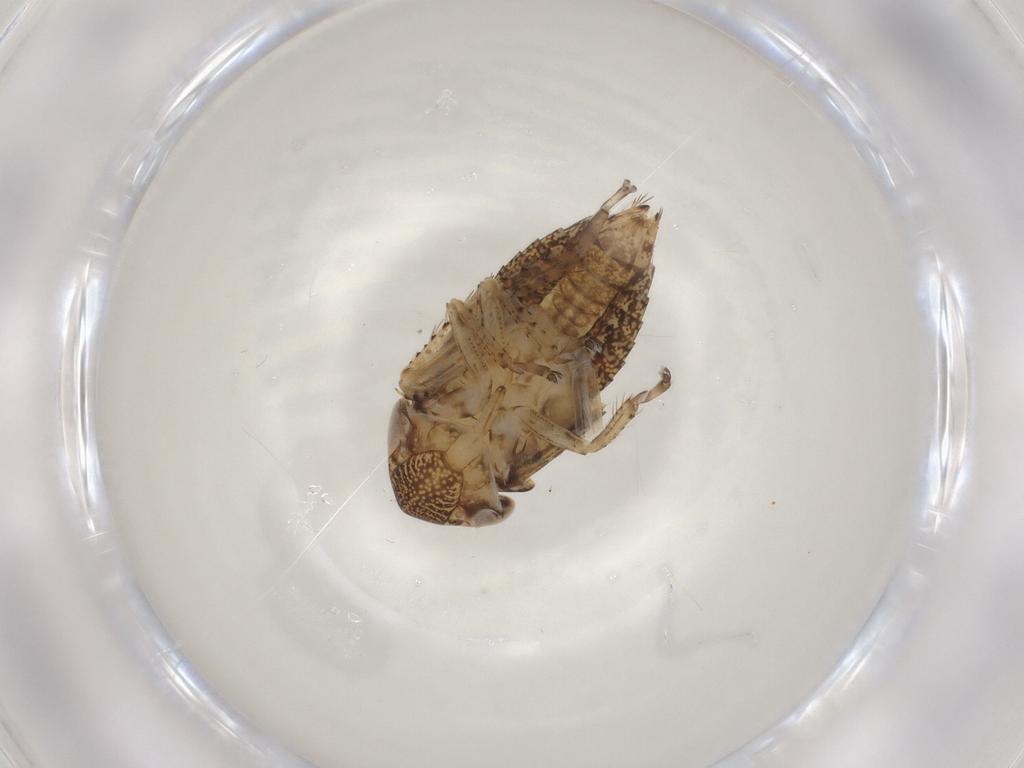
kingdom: Animalia
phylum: Arthropoda
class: Insecta
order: Hemiptera
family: Cicadellidae
